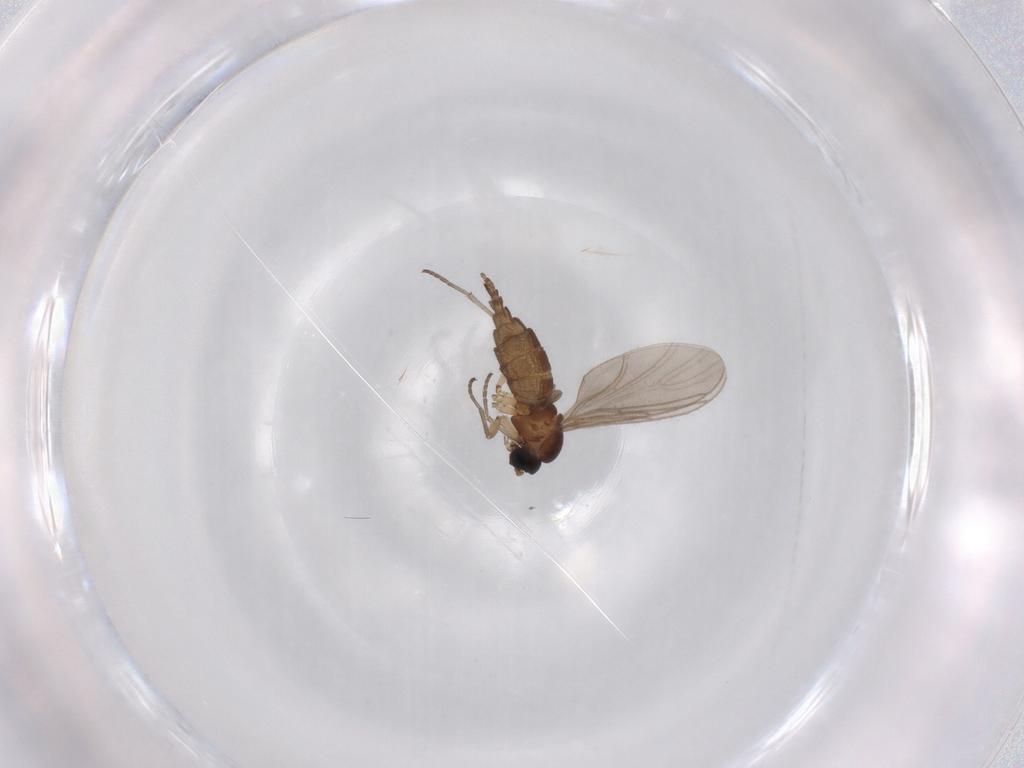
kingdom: Animalia
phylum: Arthropoda
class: Insecta
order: Diptera
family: Sciaridae
